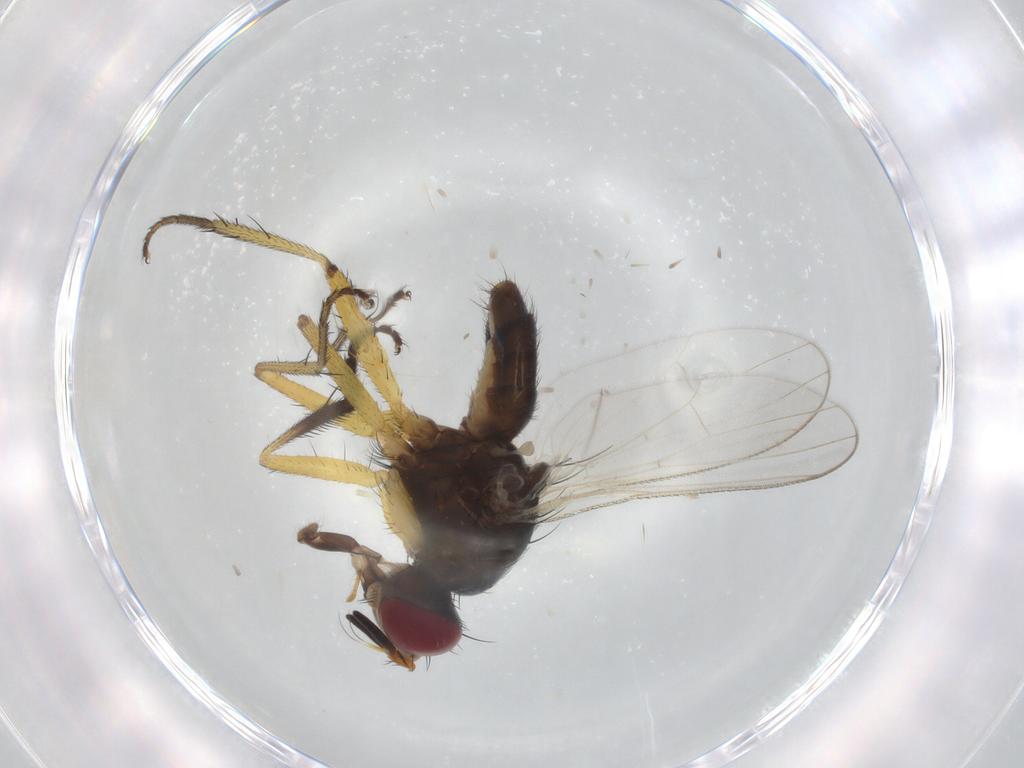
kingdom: Animalia
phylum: Arthropoda
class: Insecta
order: Diptera
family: Muscidae
